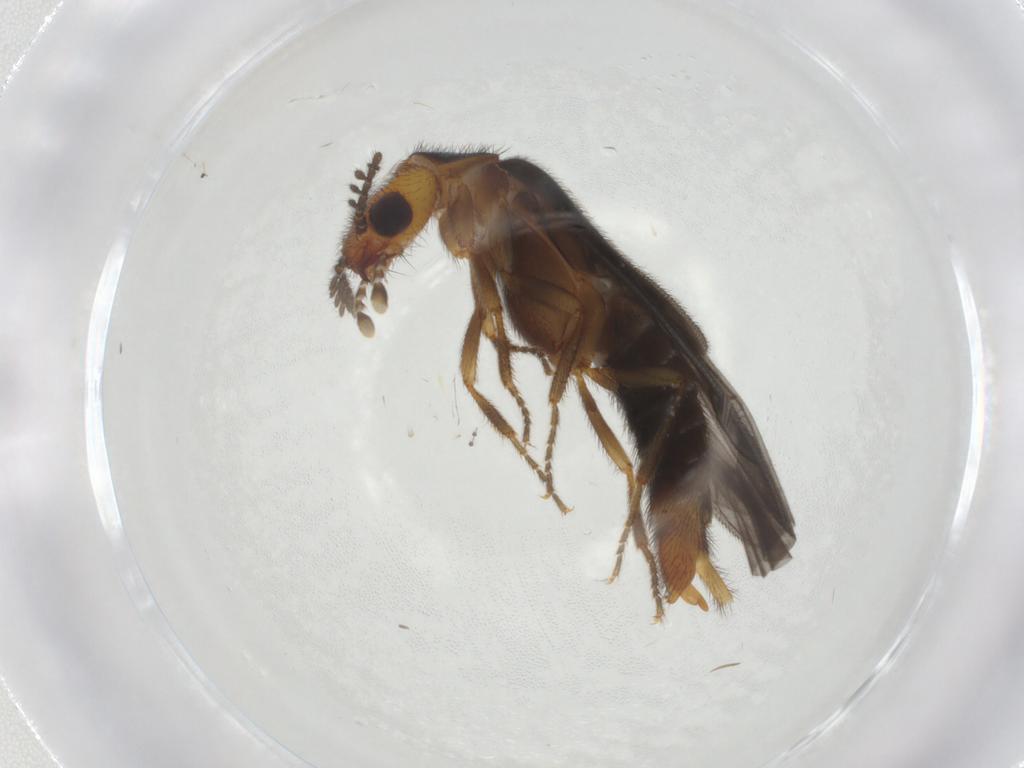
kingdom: Animalia
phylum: Arthropoda
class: Insecta
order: Coleoptera
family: Phengodidae
